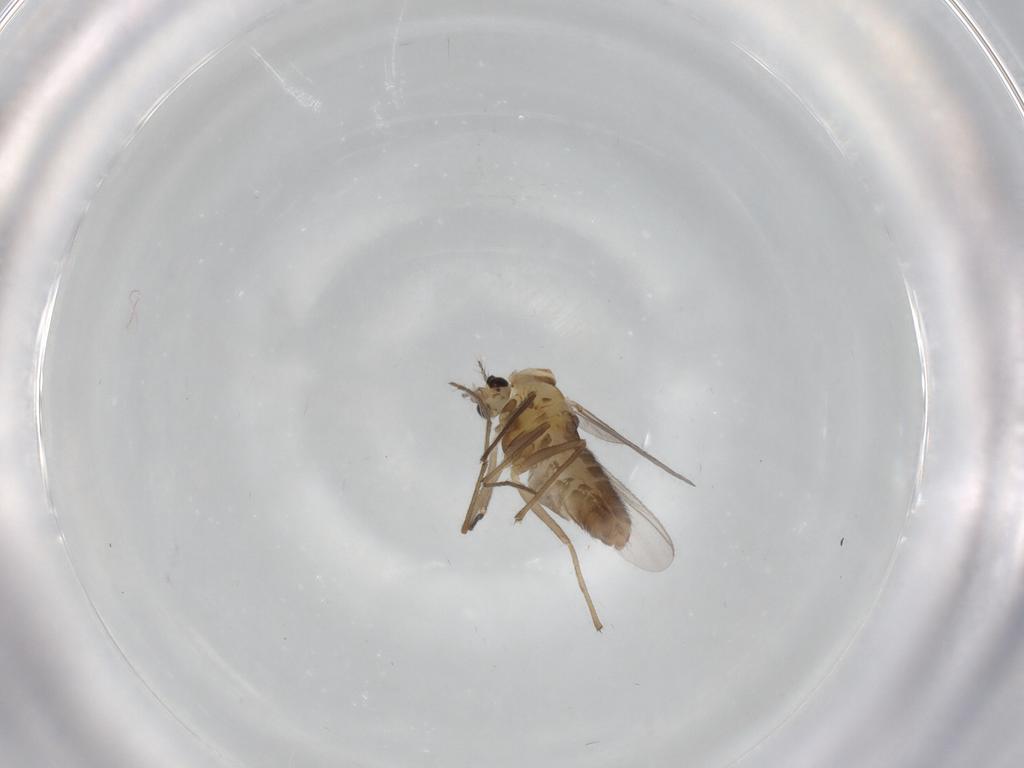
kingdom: Animalia
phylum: Arthropoda
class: Insecta
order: Diptera
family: Chironomidae
